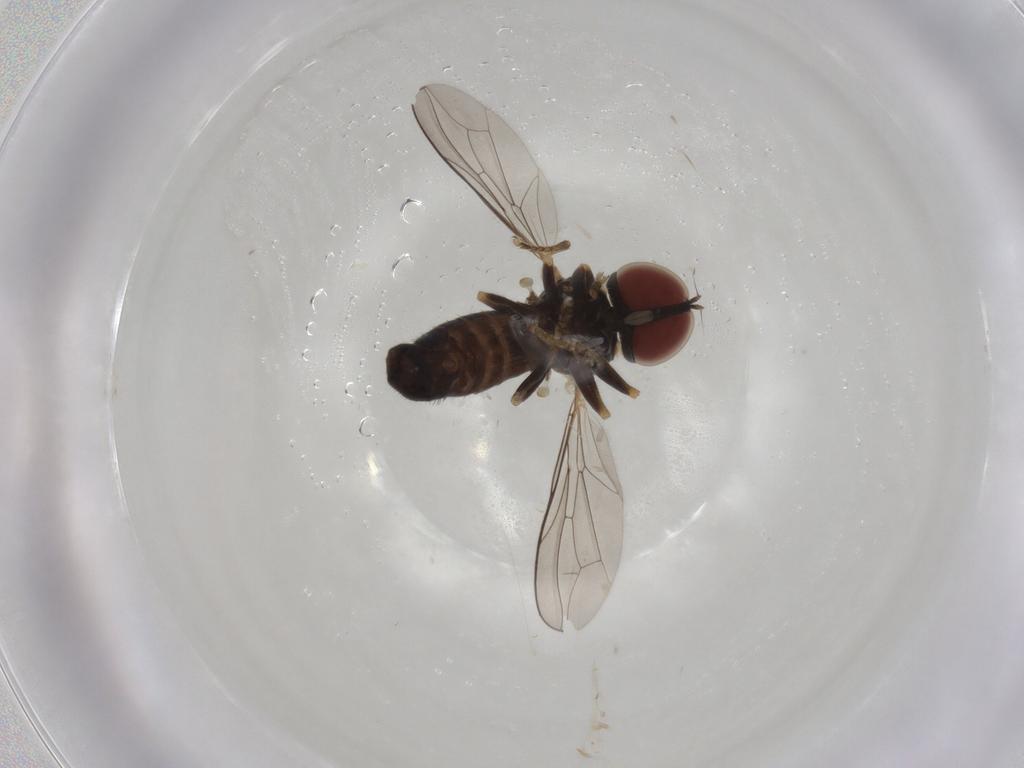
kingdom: Animalia
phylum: Arthropoda
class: Insecta
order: Diptera
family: Pipunculidae
